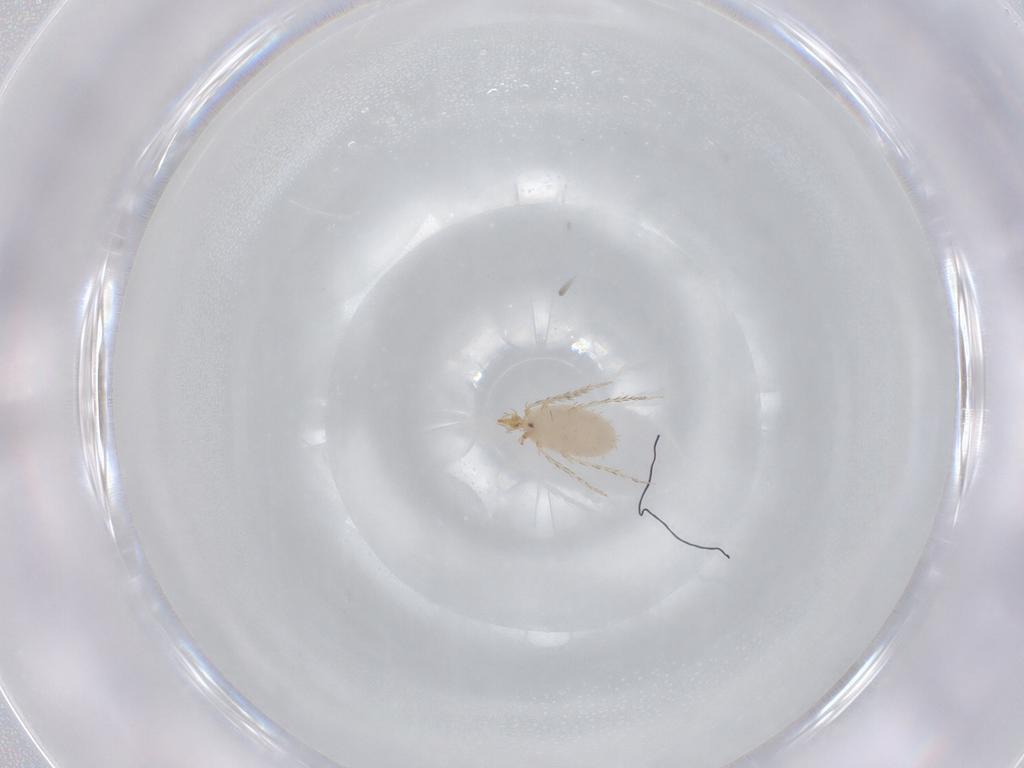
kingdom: Animalia
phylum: Arthropoda
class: Arachnida
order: Trombidiformes
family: Erythraeidae
